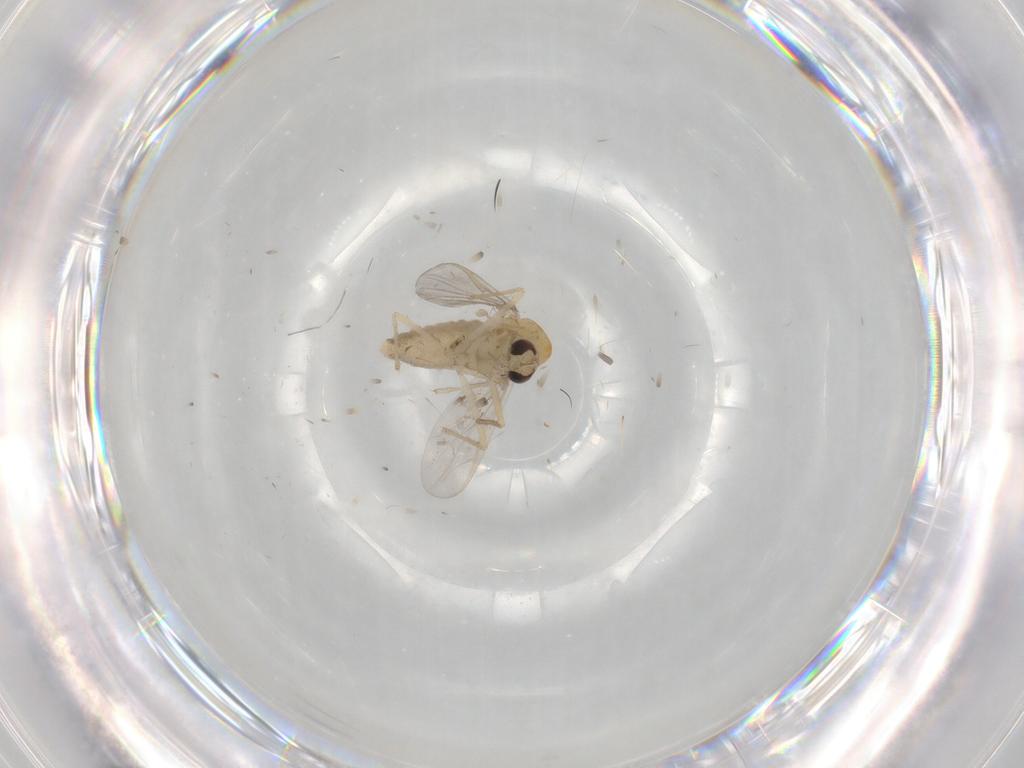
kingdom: Animalia
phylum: Arthropoda
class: Insecta
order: Diptera
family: Chironomidae
